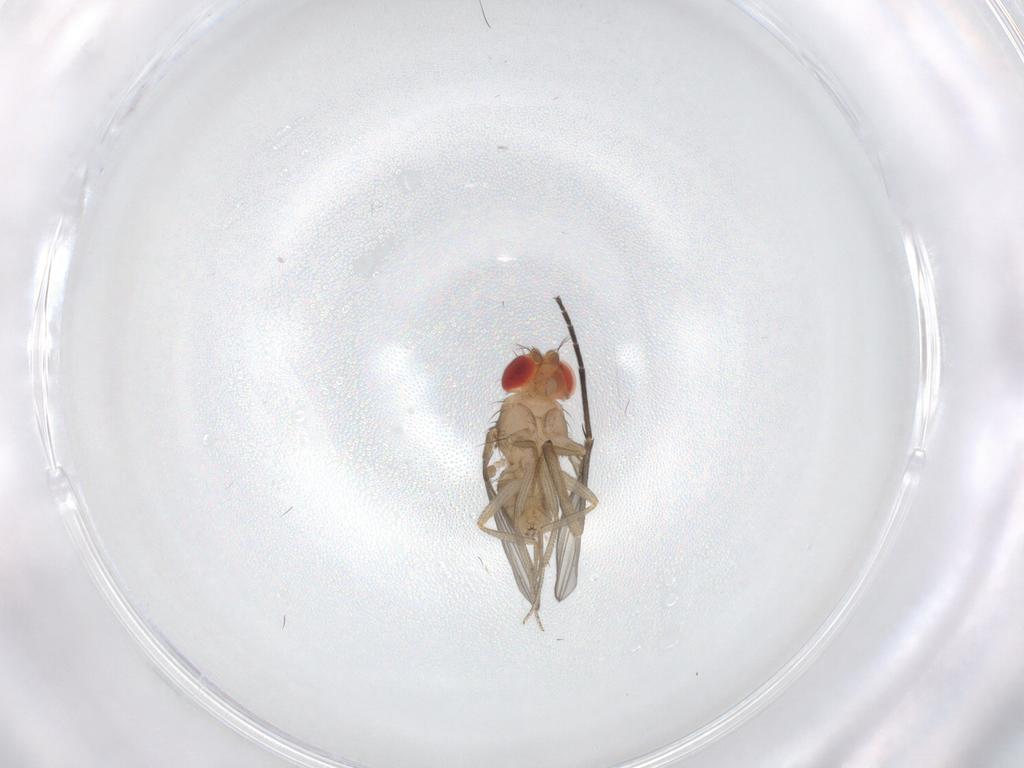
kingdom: Animalia
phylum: Arthropoda
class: Insecta
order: Diptera
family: Drosophilidae
